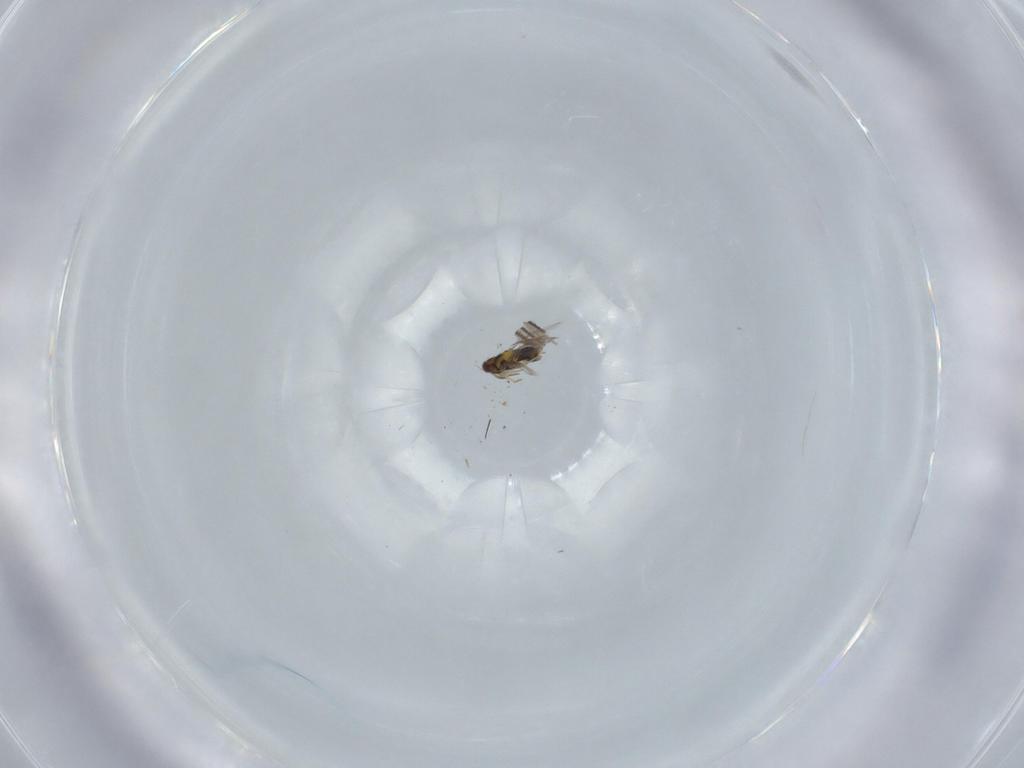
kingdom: Animalia
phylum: Arthropoda
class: Insecta
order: Hymenoptera
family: Aphelinidae
